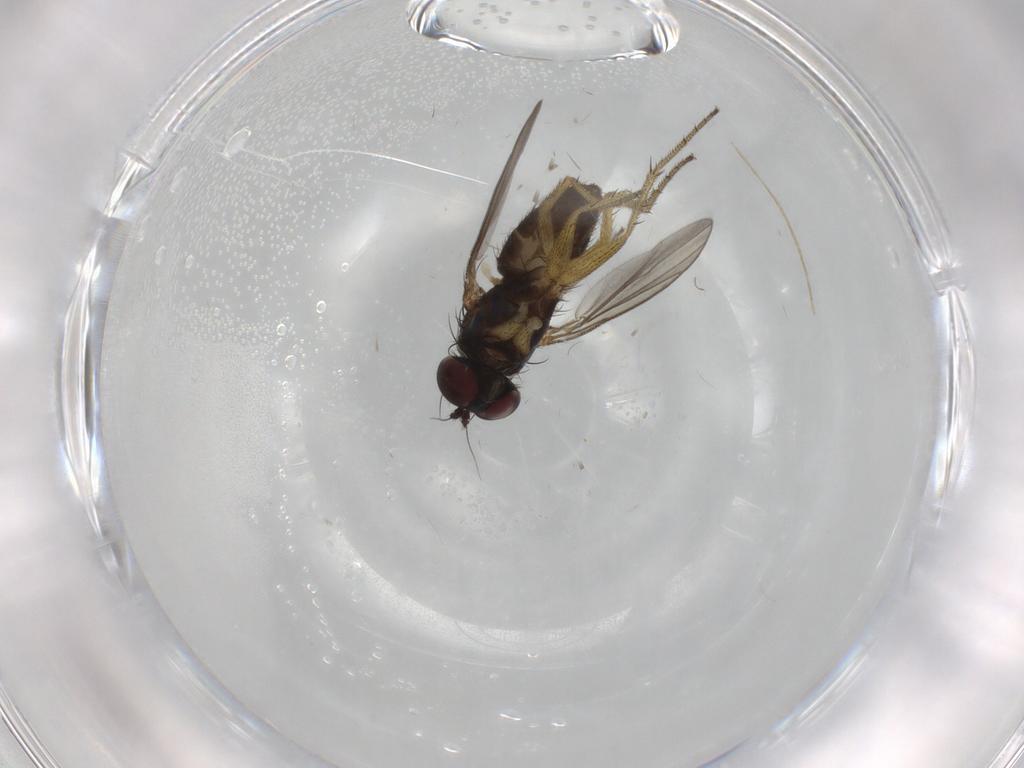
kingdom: Animalia
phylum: Arthropoda
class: Insecta
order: Diptera
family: Dolichopodidae
